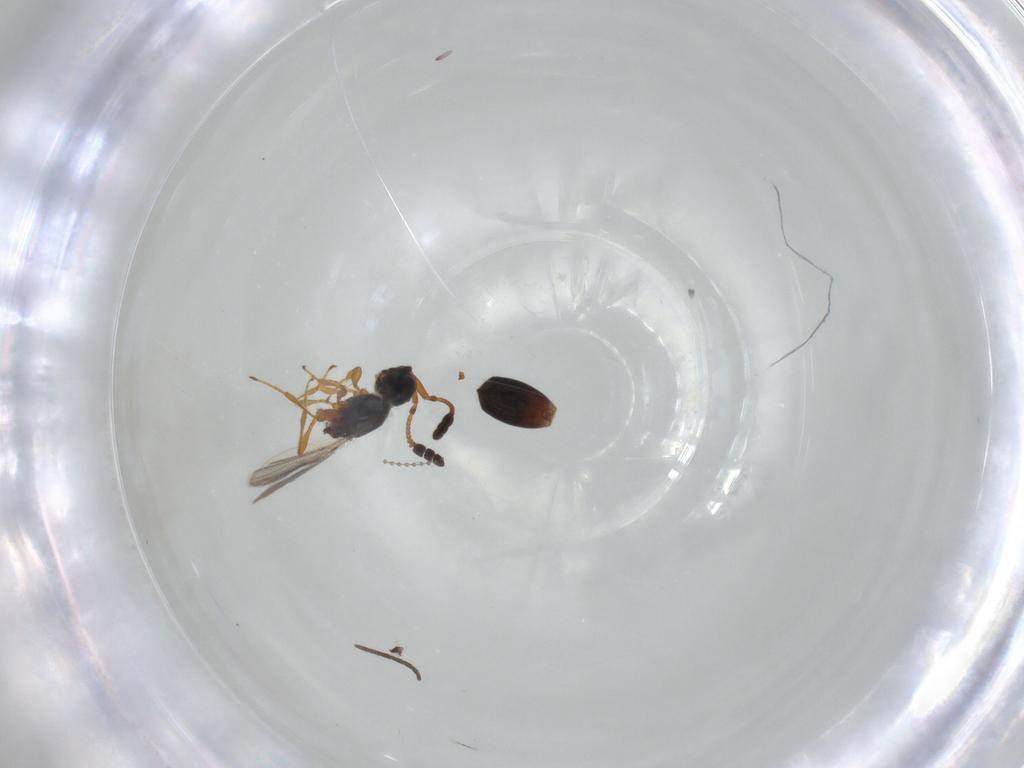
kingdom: Animalia
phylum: Arthropoda
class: Insecta
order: Hymenoptera
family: Diapriidae
